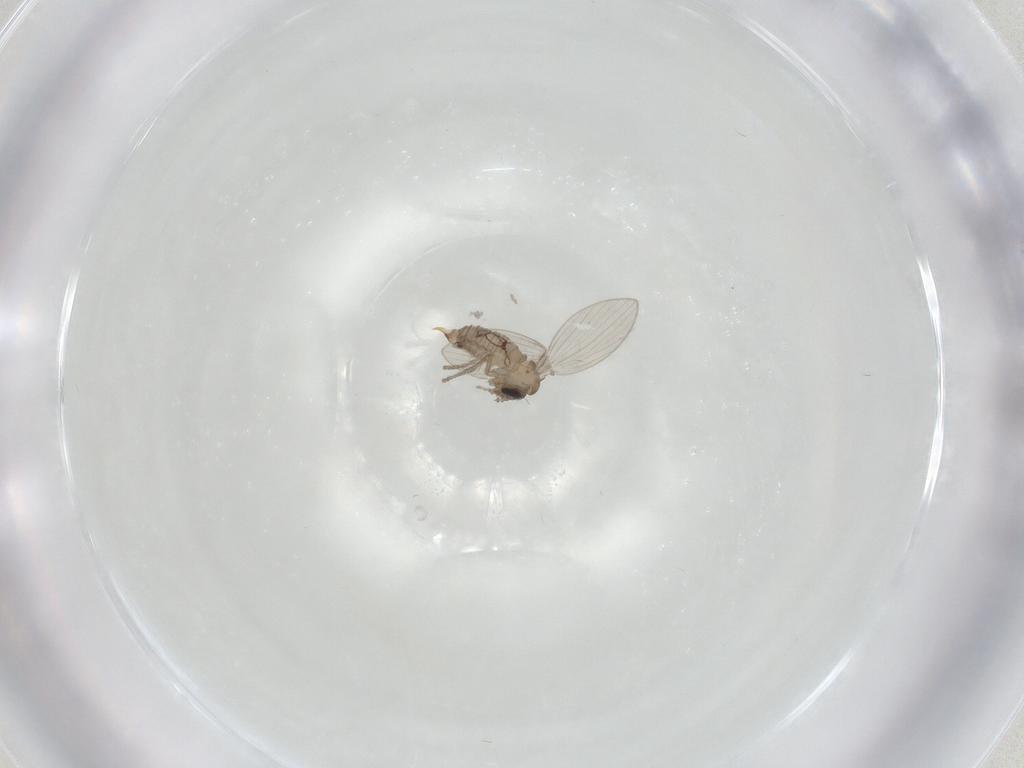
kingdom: Animalia
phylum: Arthropoda
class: Insecta
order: Diptera
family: Psychodidae
